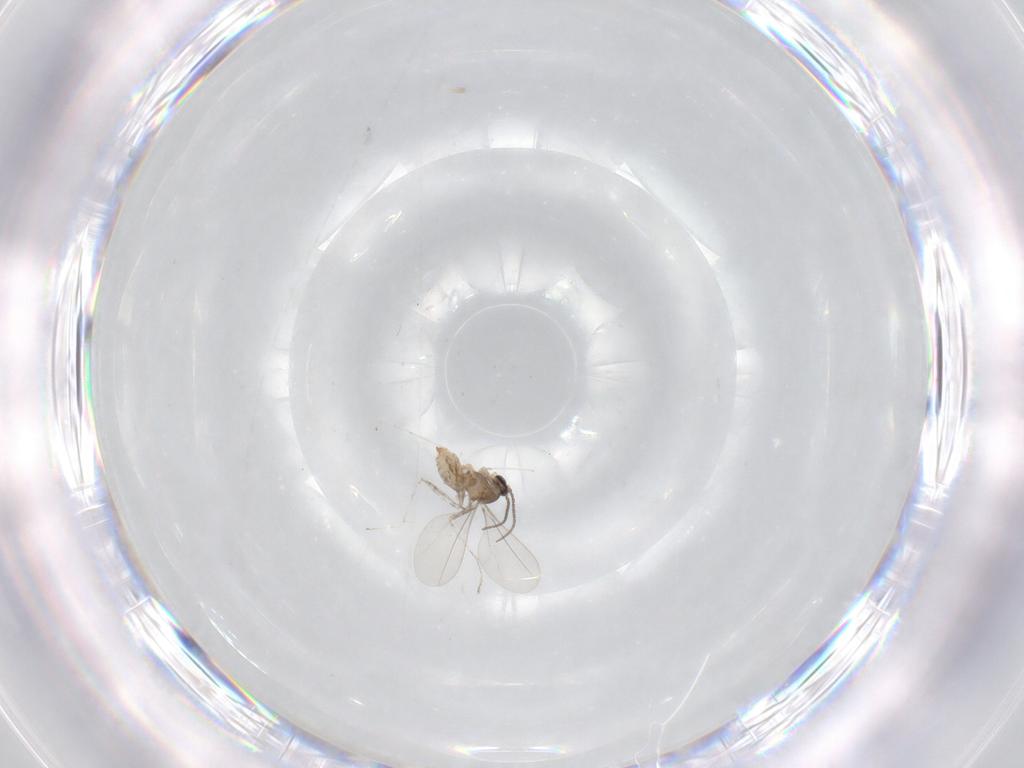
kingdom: Animalia
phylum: Arthropoda
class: Insecta
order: Diptera
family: Cecidomyiidae
